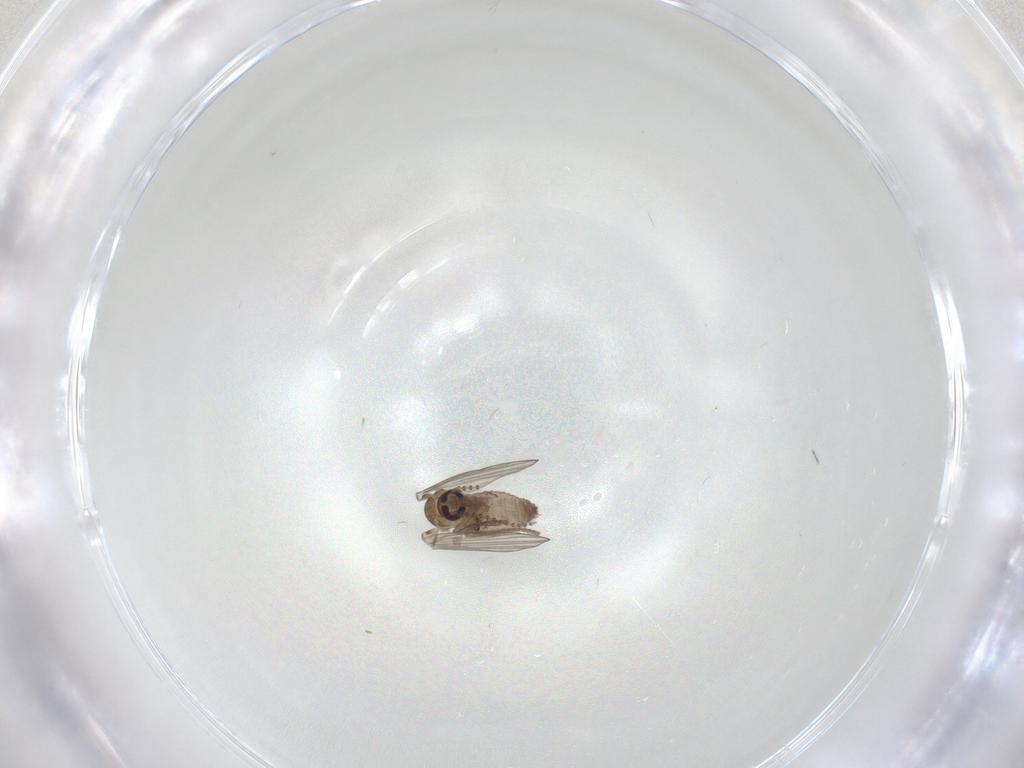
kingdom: Animalia
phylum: Arthropoda
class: Insecta
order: Diptera
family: Psychodidae
